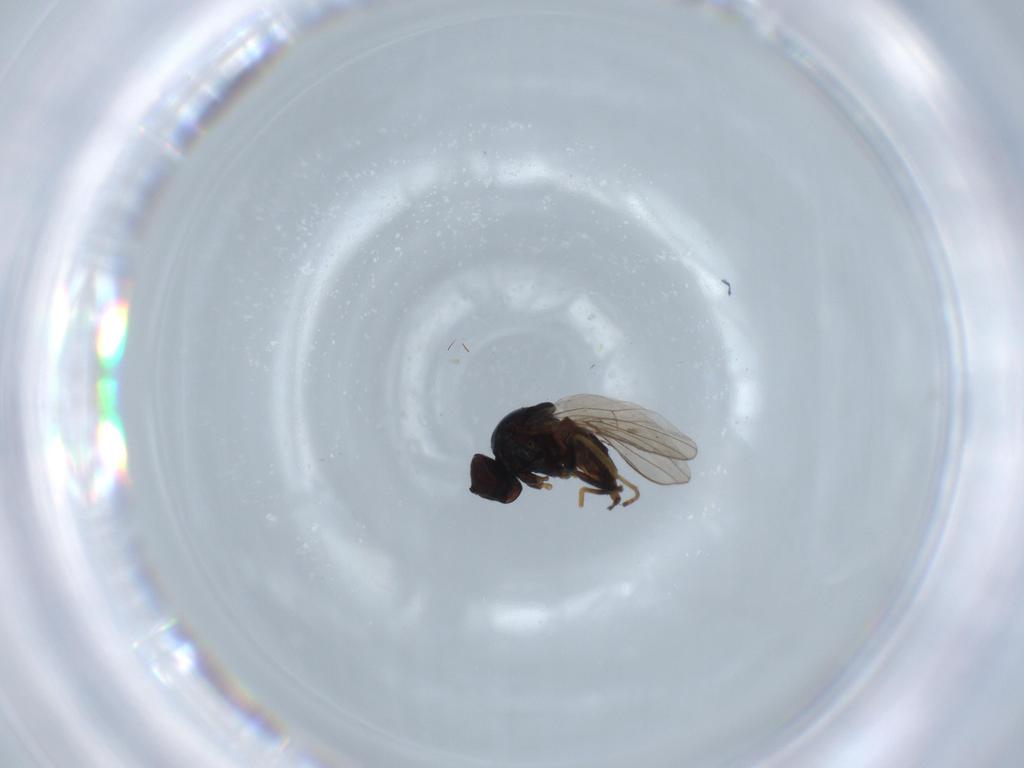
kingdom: Animalia
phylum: Arthropoda
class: Insecta
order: Diptera
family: Chloropidae
